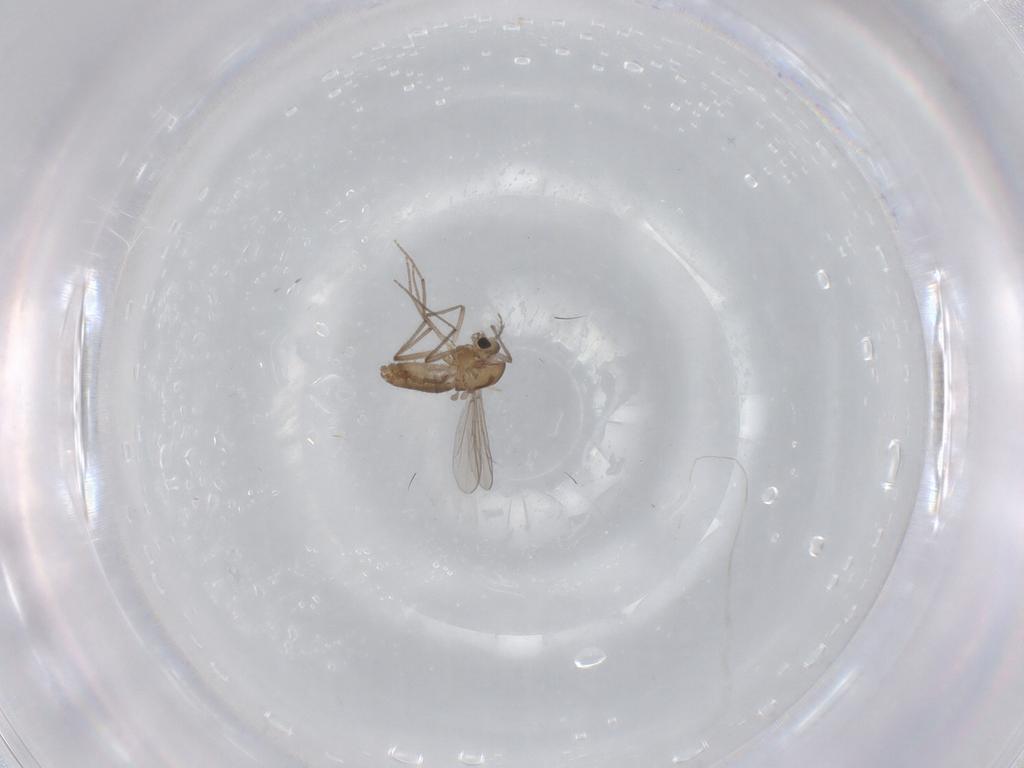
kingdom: Animalia
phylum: Arthropoda
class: Insecta
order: Diptera
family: Chironomidae
